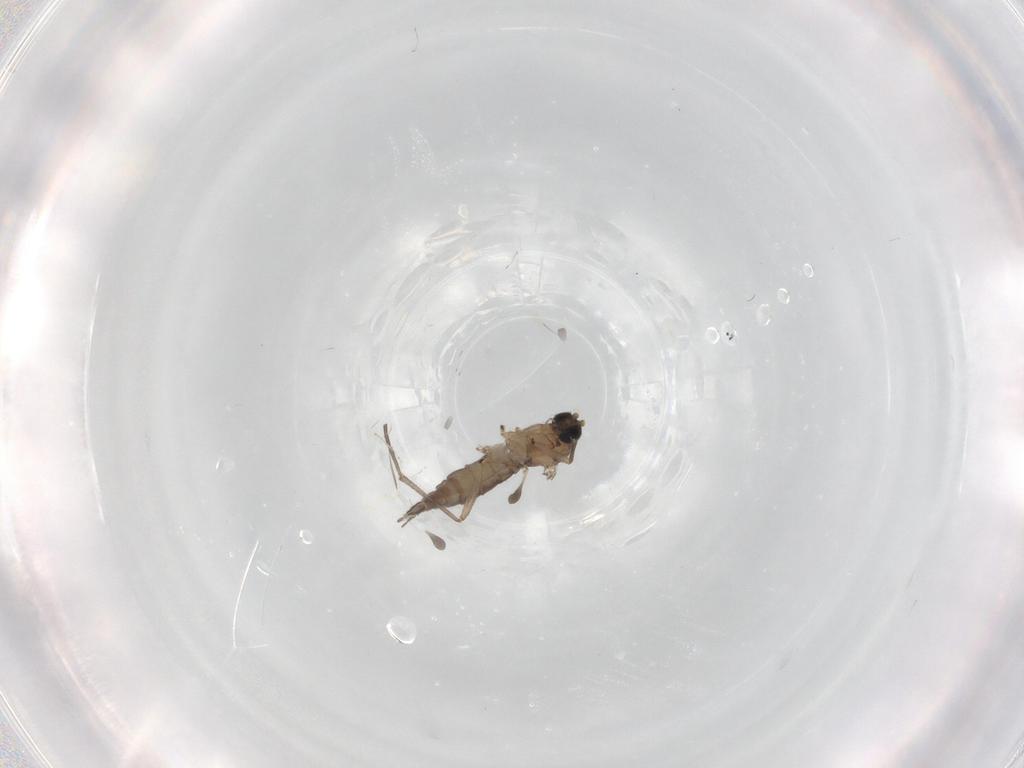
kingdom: Animalia
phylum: Arthropoda
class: Insecta
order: Diptera
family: Sciaridae
